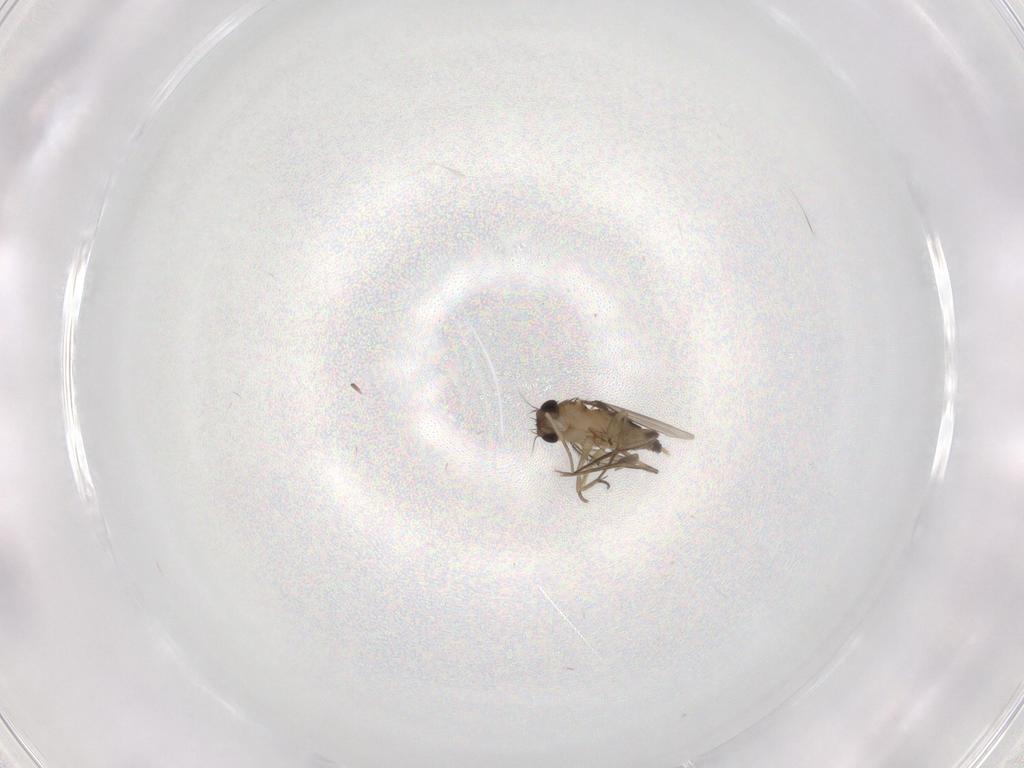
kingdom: Animalia
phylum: Arthropoda
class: Insecta
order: Diptera
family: Phoridae
